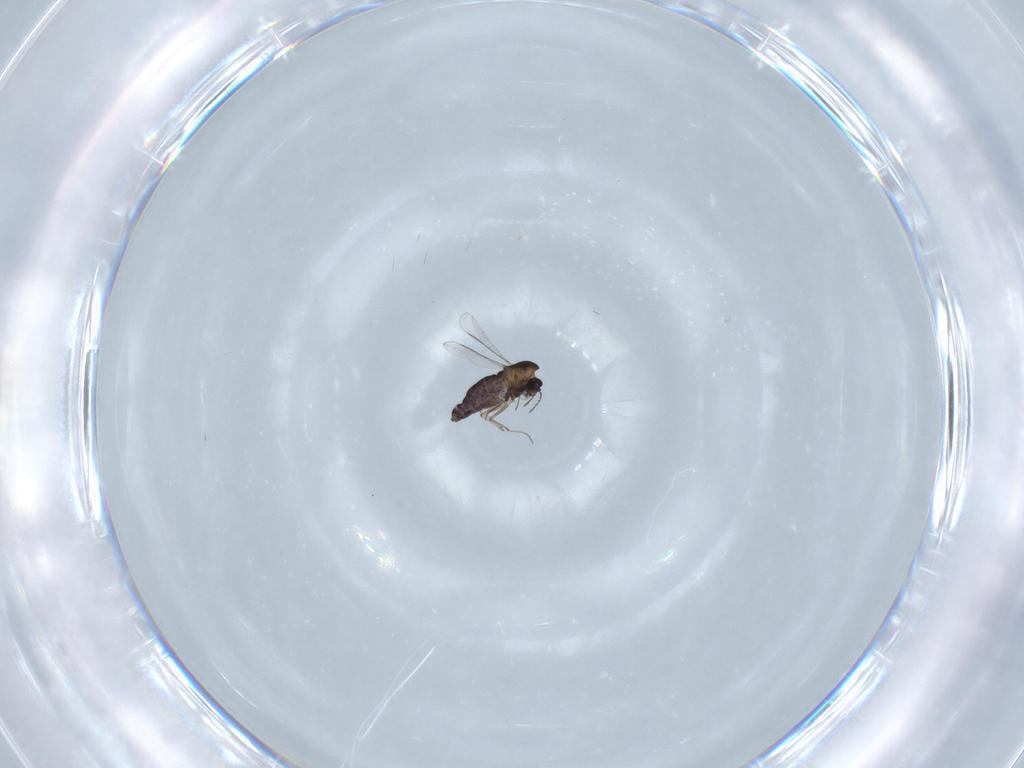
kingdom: Animalia
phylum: Arthropoda
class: Insecta
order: Diptera
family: Chironomidae
